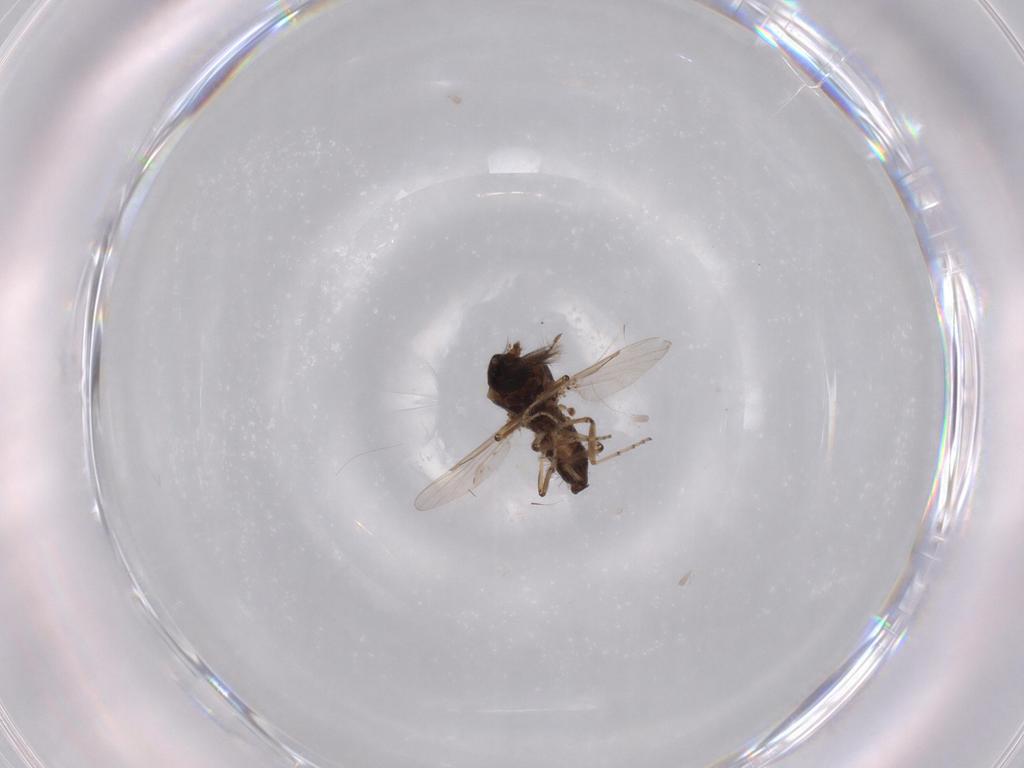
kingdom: Animalia
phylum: Arthropoda
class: Insecta
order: Diptera
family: Ceratopogonidae
